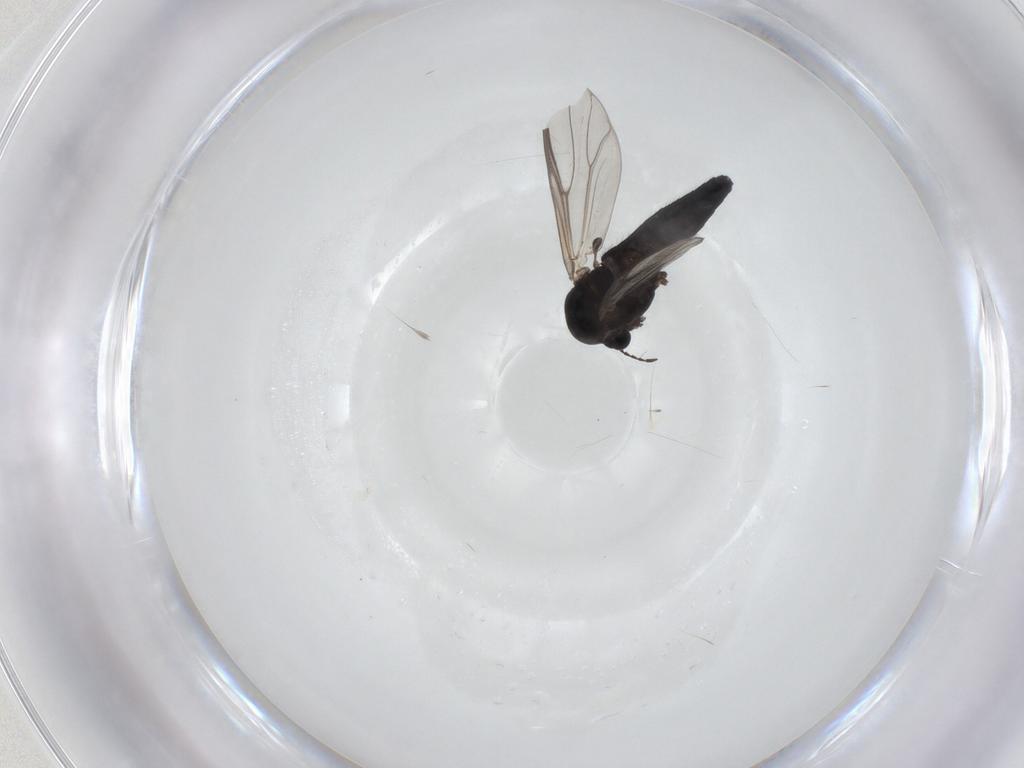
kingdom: Animalia
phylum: Arthropoda
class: Insecta
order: Diptera
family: Chironomidae
